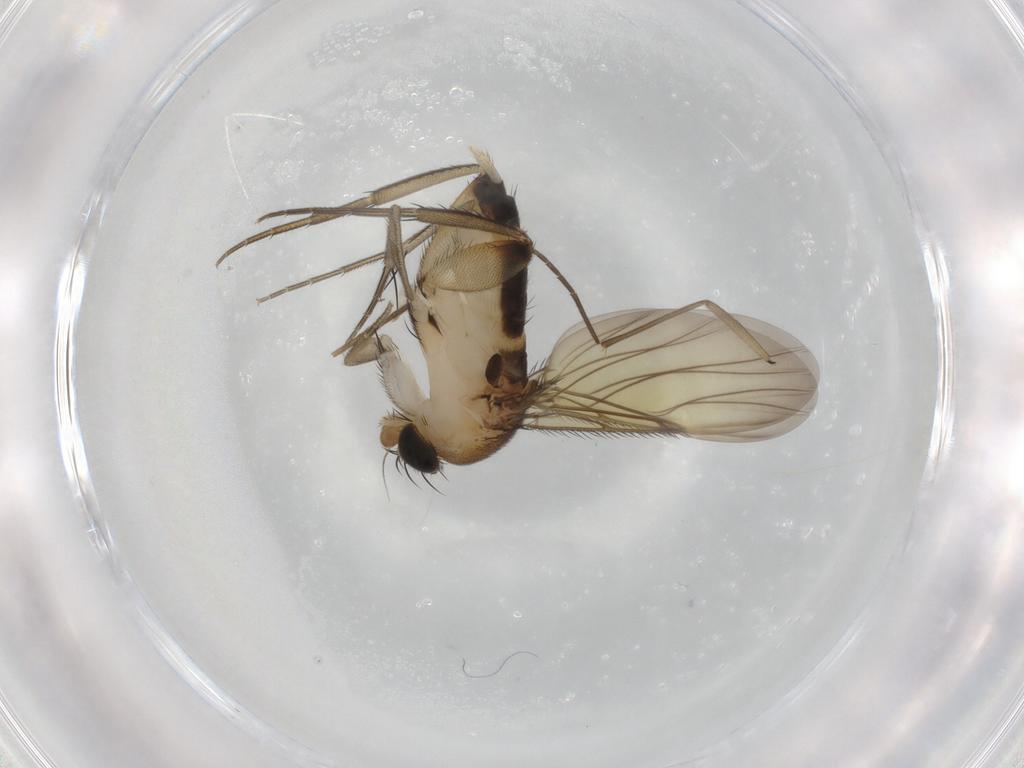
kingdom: Animalia
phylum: Arthropoda
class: Insecta
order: Diptera
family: Phoridae
